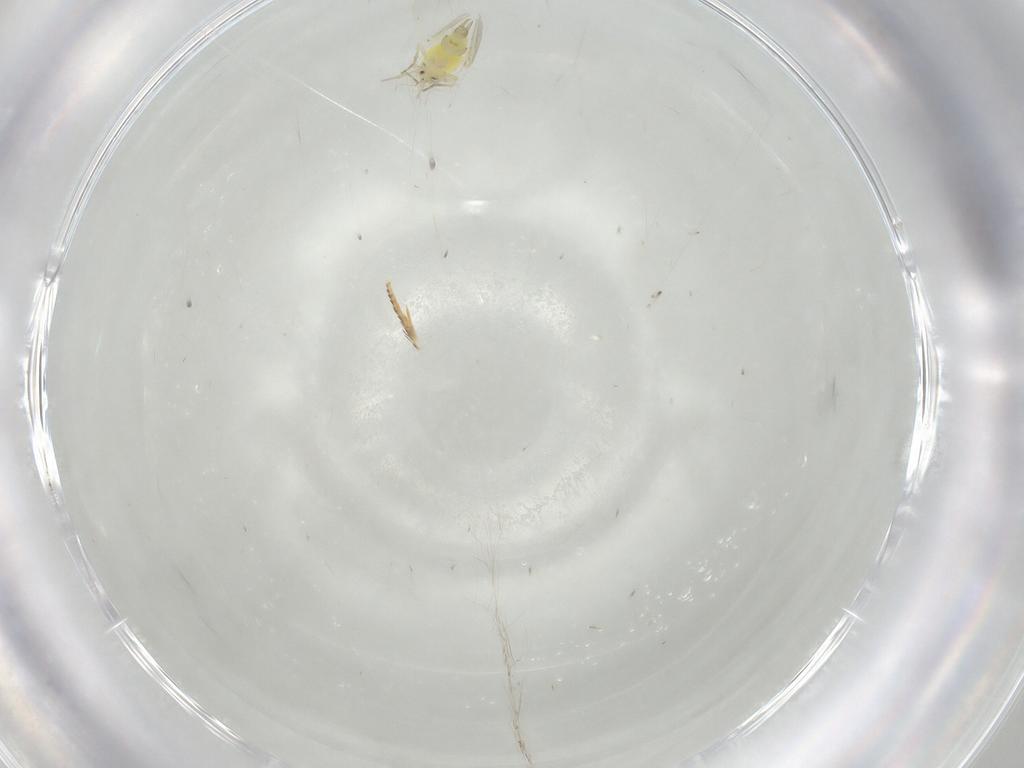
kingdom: Animalia
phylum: Arthropoda
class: Insecta
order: Hemiptera
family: Aleyrodidae
